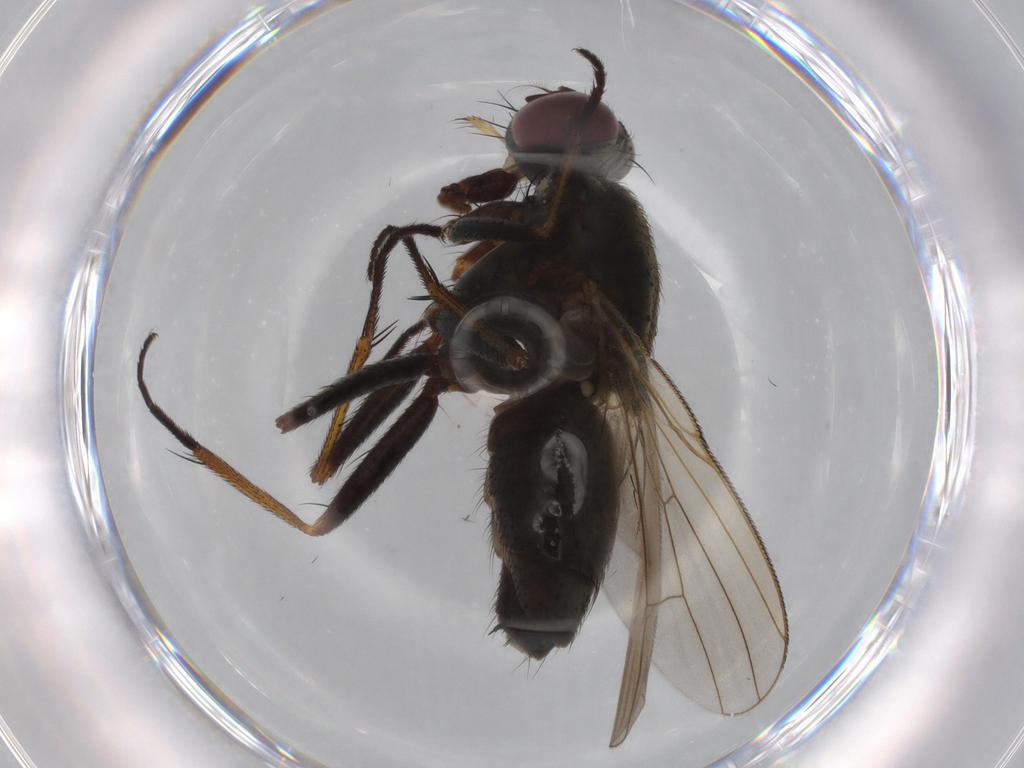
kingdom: Animalia
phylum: Arthropoda
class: Insecta
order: Diptera
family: Muscidae
